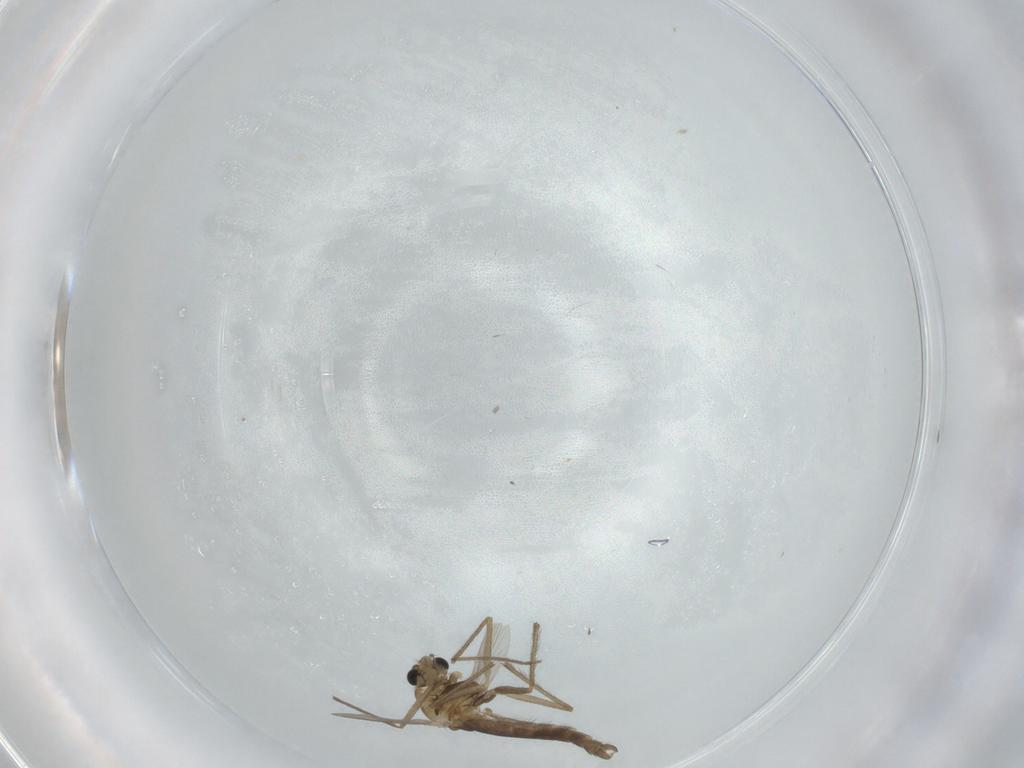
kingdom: Animalia
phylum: Arthropoda
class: Insecta
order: Diptera
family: Chironomidae
